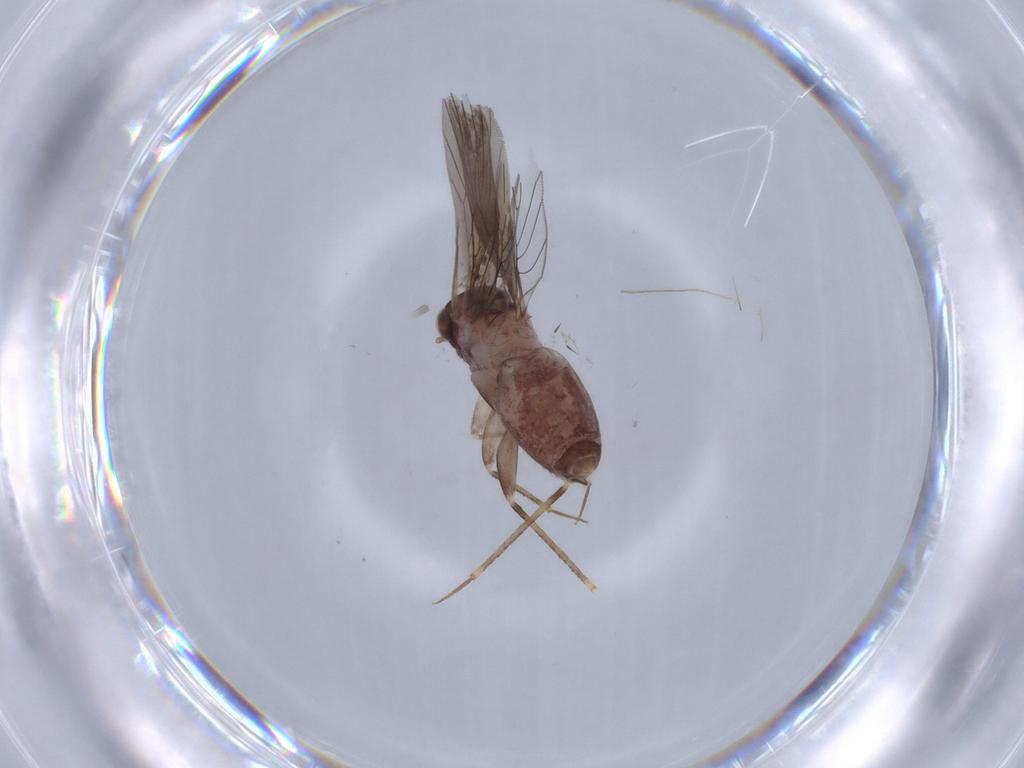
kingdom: Animalia
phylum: Arthropoda
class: Insecta
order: Psocodea
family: Lepidopsocidae
